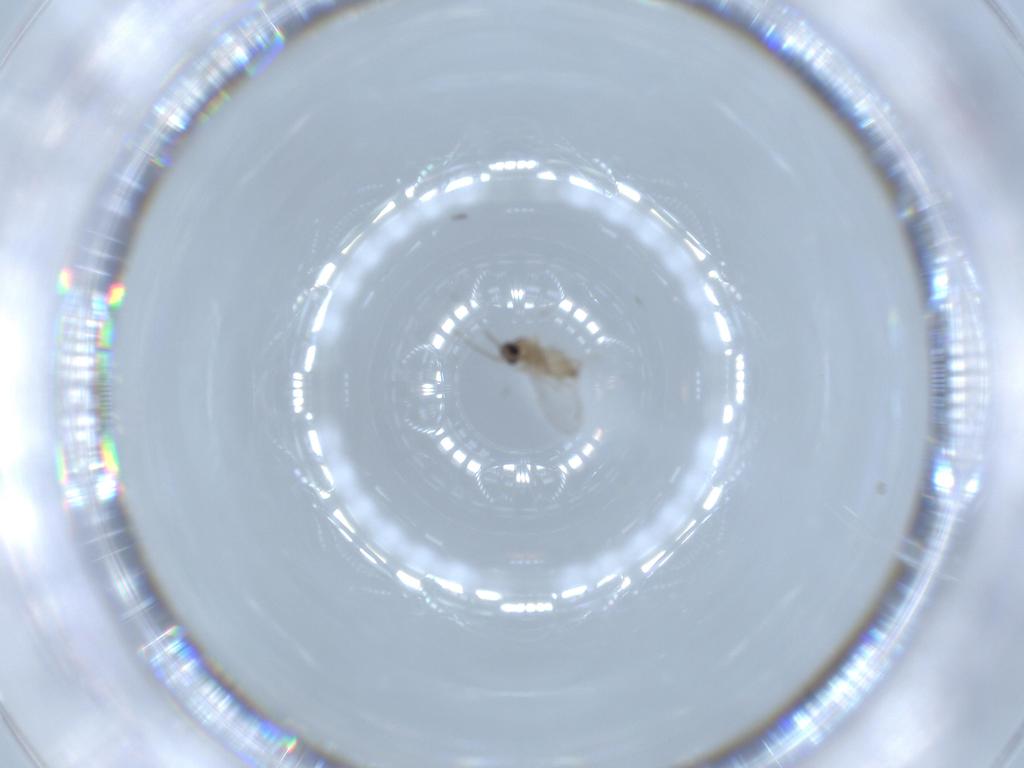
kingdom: Animalia
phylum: Arthropoda
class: Insecta
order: Diptera
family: Cecidomyiidae
